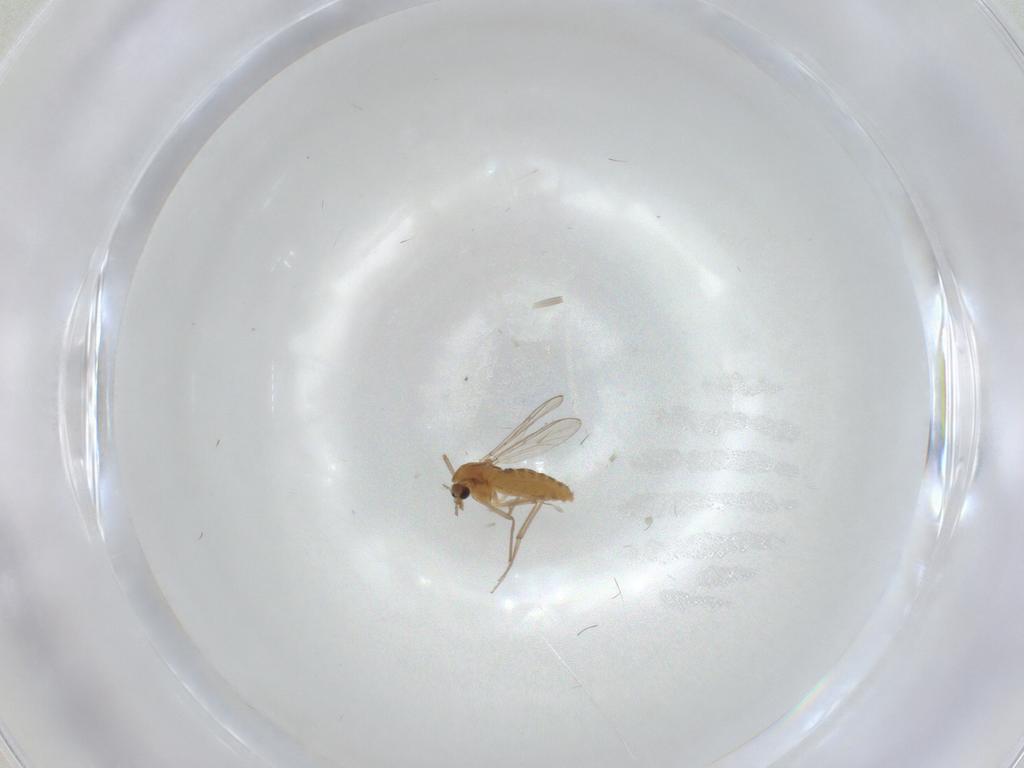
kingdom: Animalia
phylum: Arthropoda
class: Insecta
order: Diptera
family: Chironomidae
